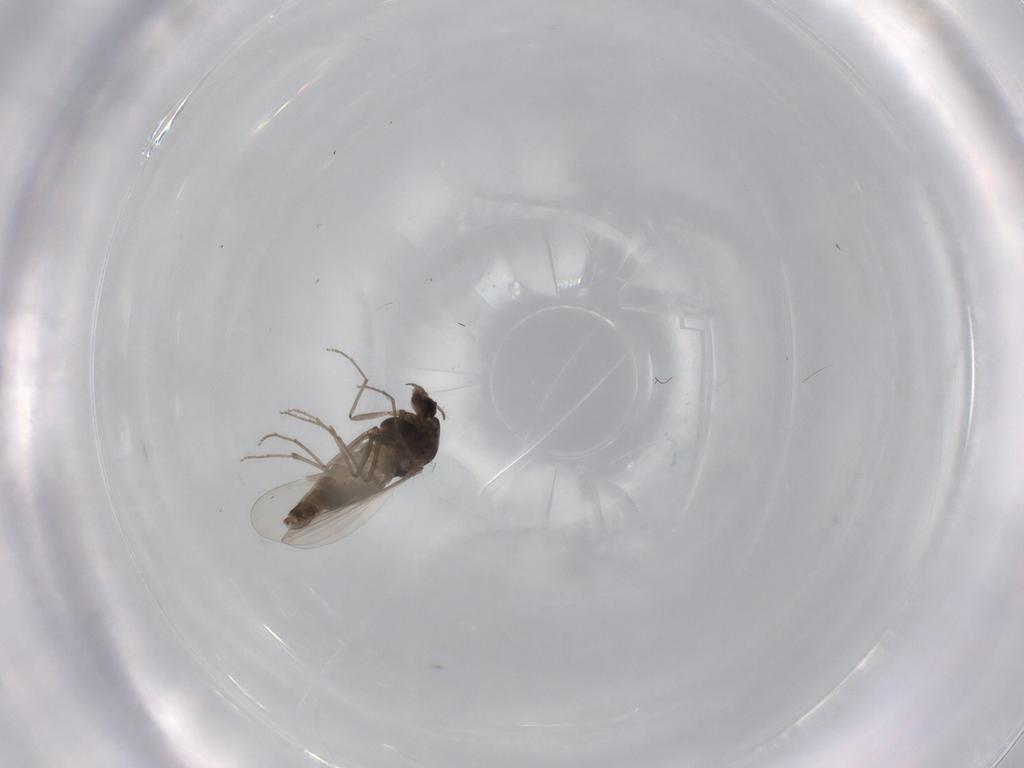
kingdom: Animalia
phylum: Arthropoda
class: Insecta
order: Diptera
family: Chironomidae
